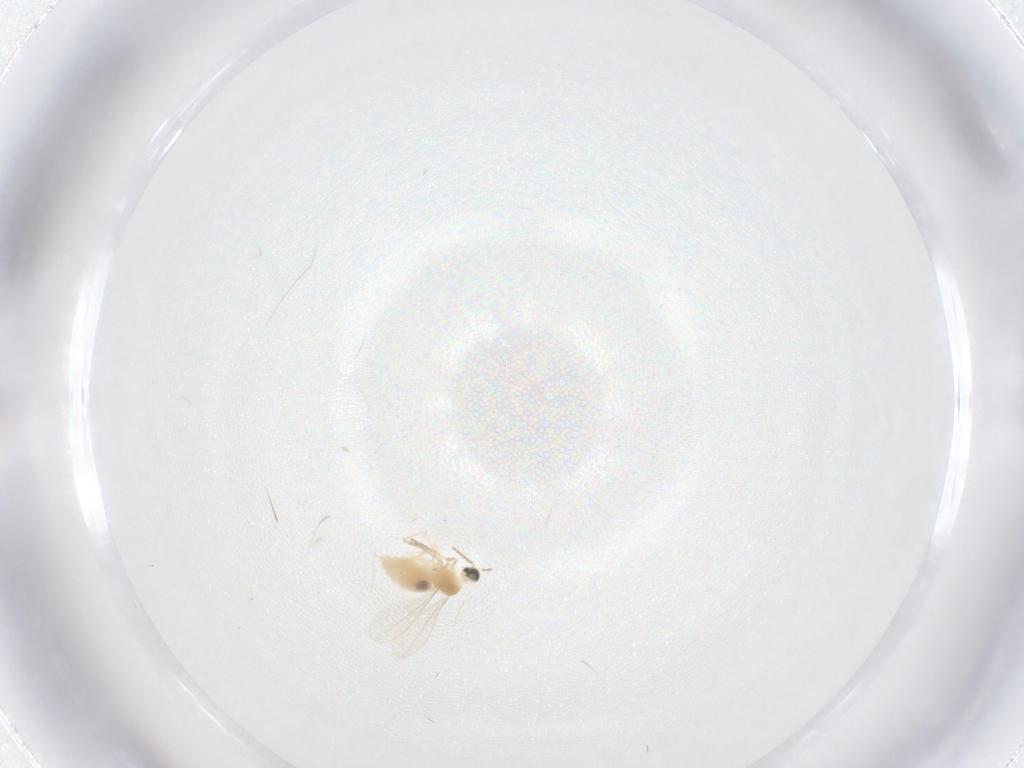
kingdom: Animalia
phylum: Arthropoda
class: Insecta
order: Diptera
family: Cecidomyiidae
